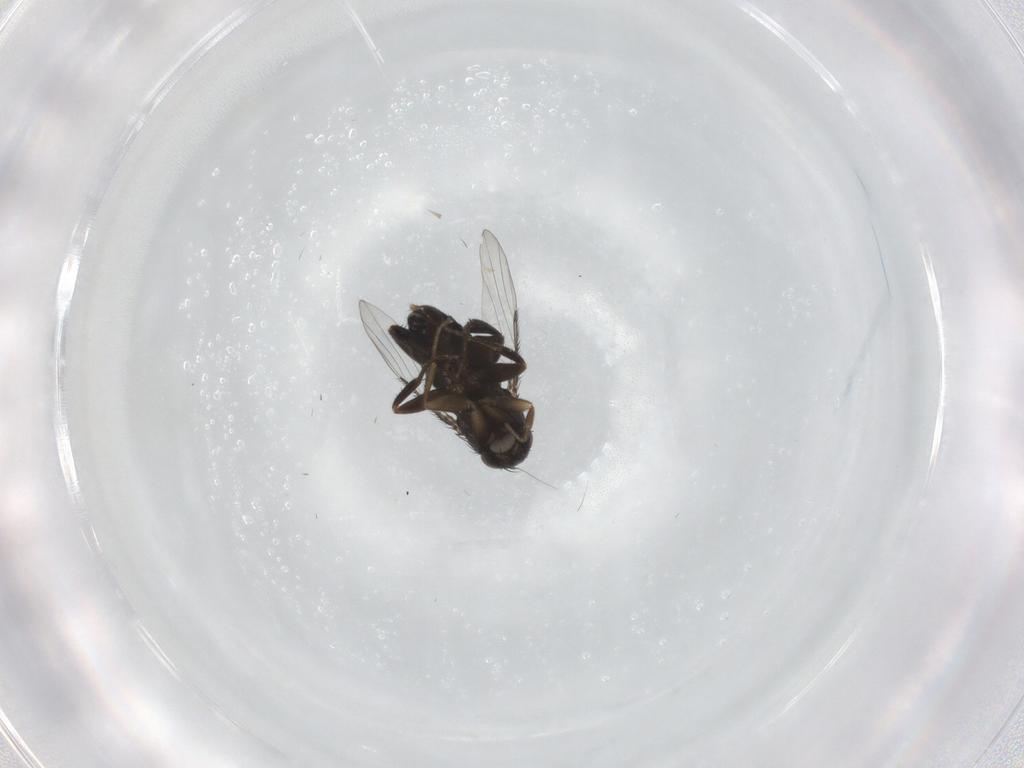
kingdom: Animalia
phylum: Arthropoda
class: Insecta
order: Diptera
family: Phoridae
